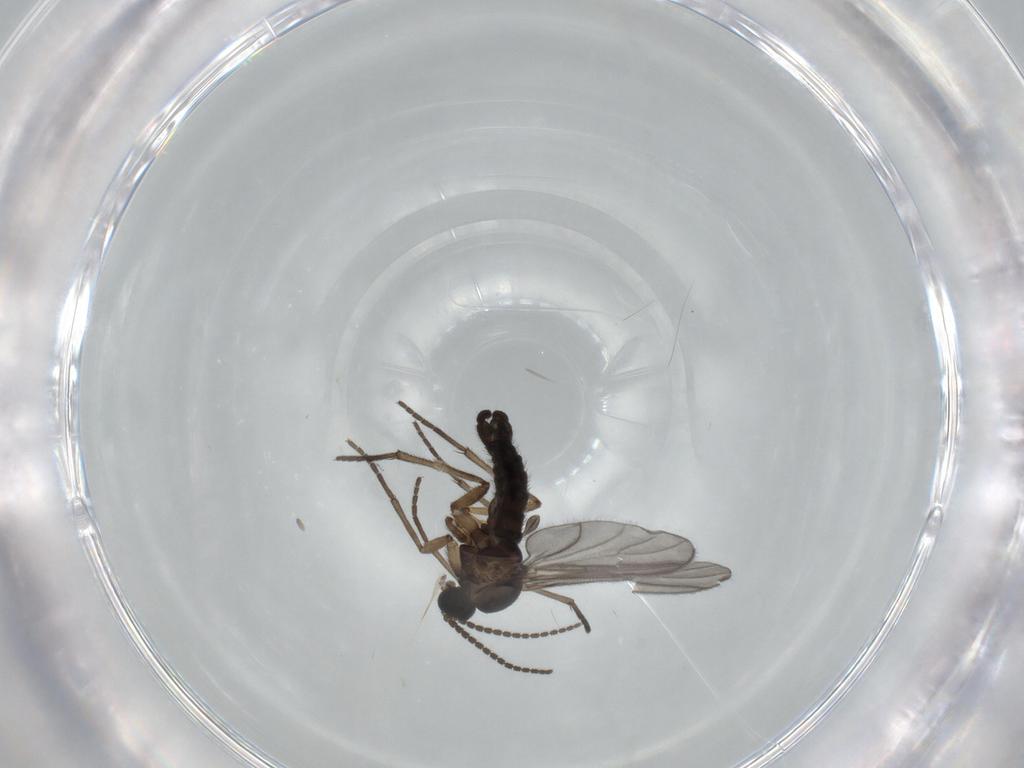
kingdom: Animalia
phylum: Arthropoda
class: Insecta
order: Diptera
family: Sciaridae
